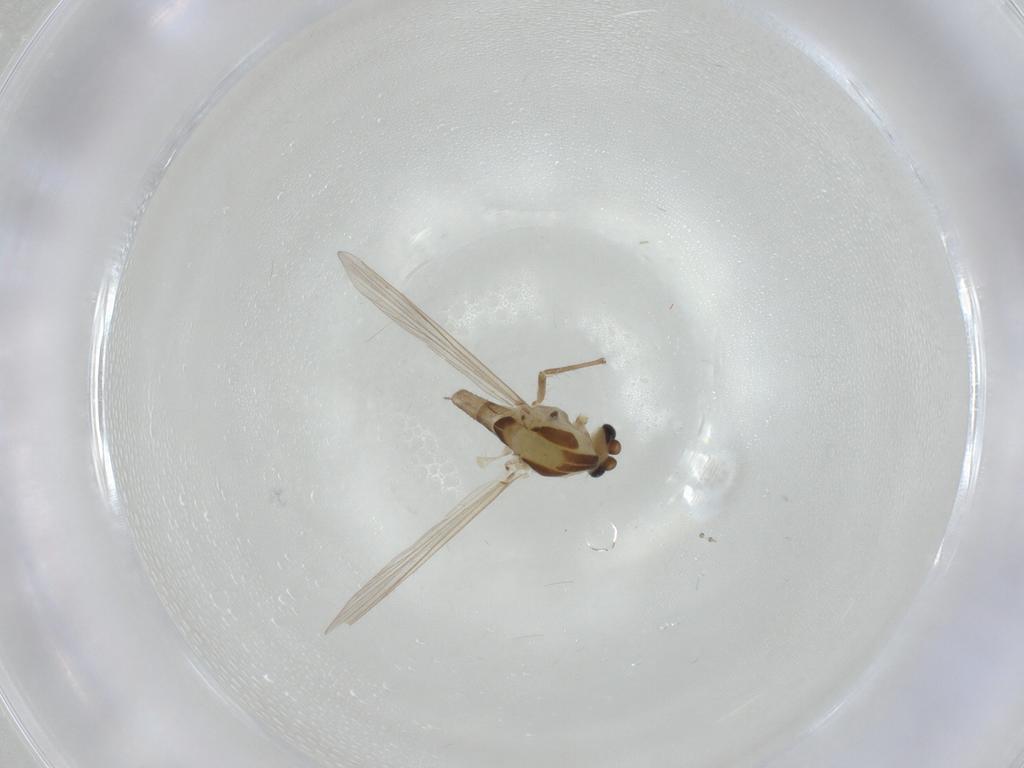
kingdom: Animalia
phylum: Arthropoda
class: Insecta
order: Diptera
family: Psychodidae
